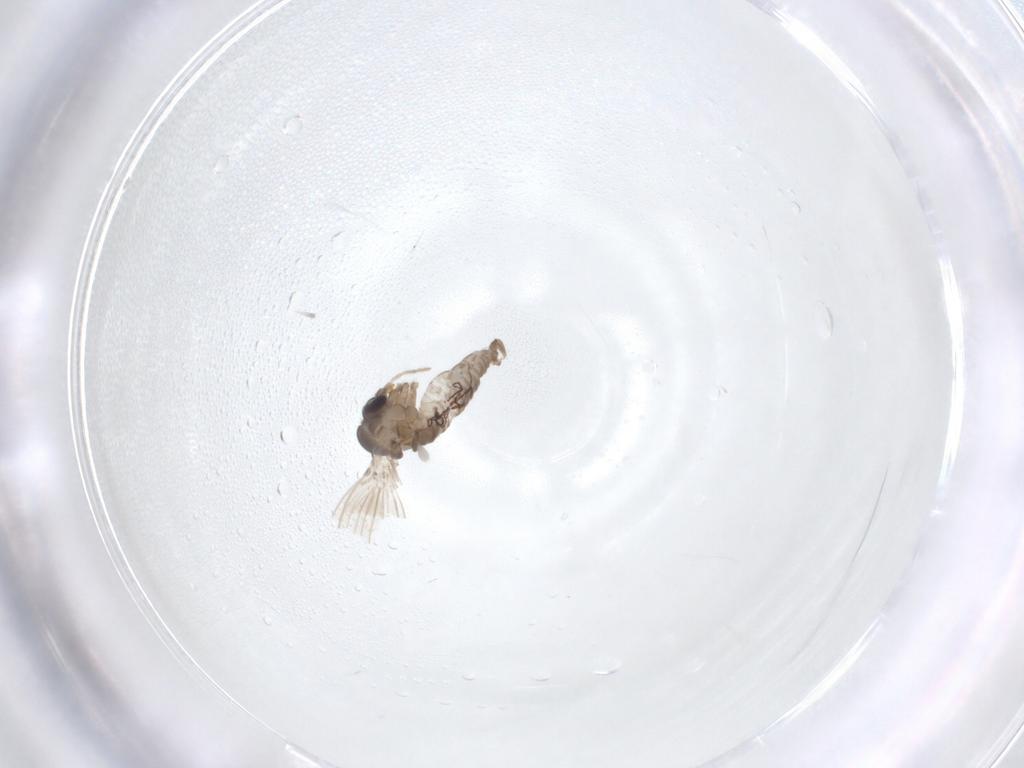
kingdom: Animalia
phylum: Arthropoda
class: Insecta
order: Diptera
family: Psychodidae
